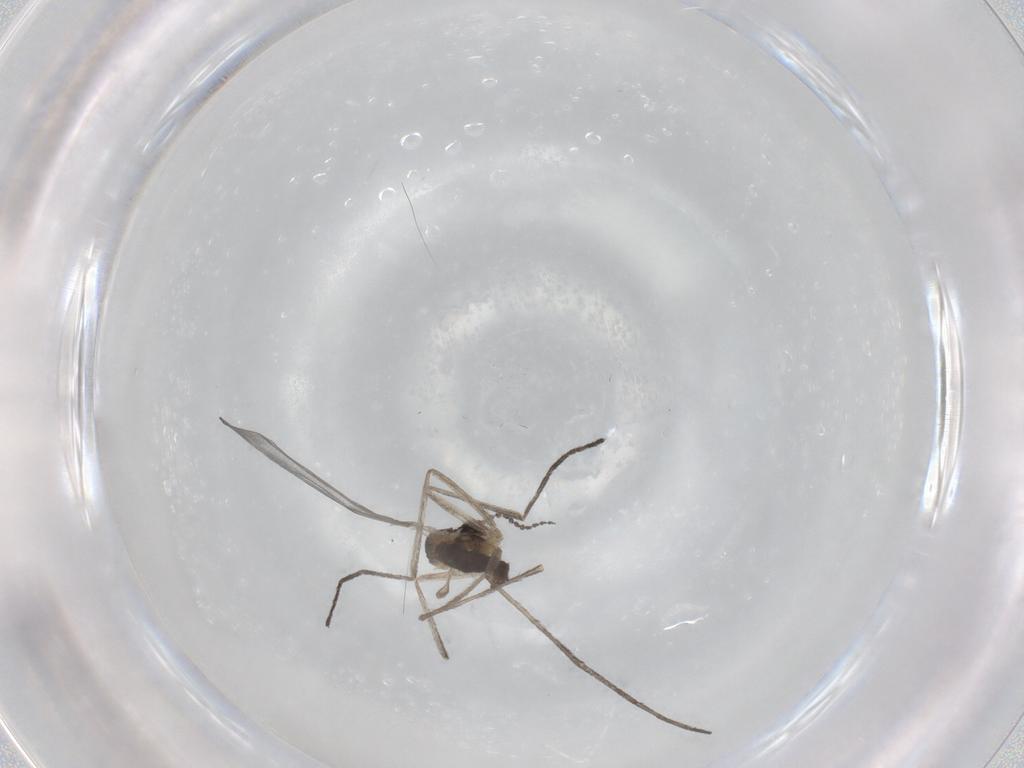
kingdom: Animalia
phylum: Arthropoda
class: Insecta
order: Diptera
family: Cecidomyiidae
